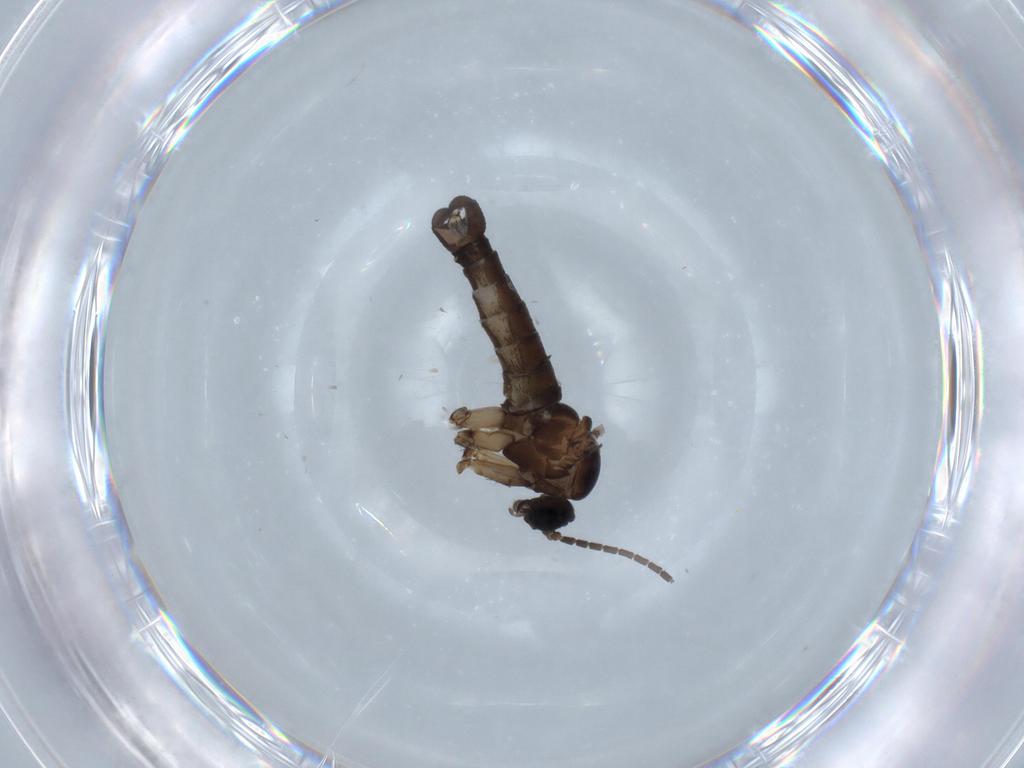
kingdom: Animalia
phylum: Arthropoda
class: Insecta
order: Diptera
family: Sciaridae
